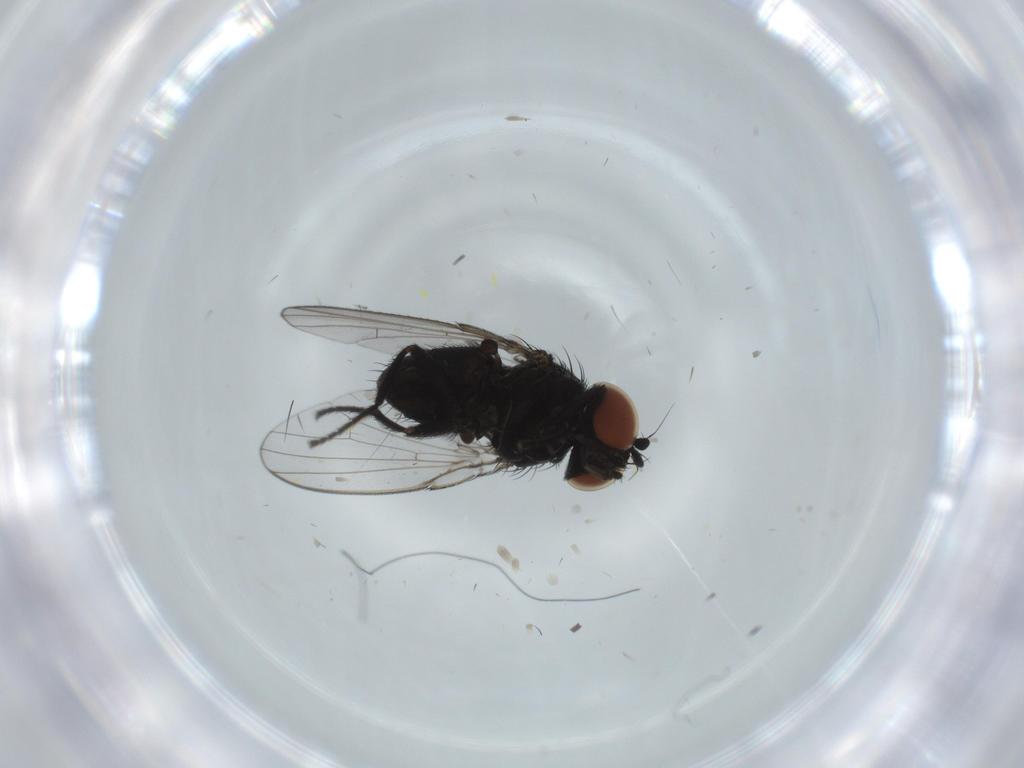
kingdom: Animalia
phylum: Arthropoda
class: Insecta
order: Diptera
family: Milichiidae
